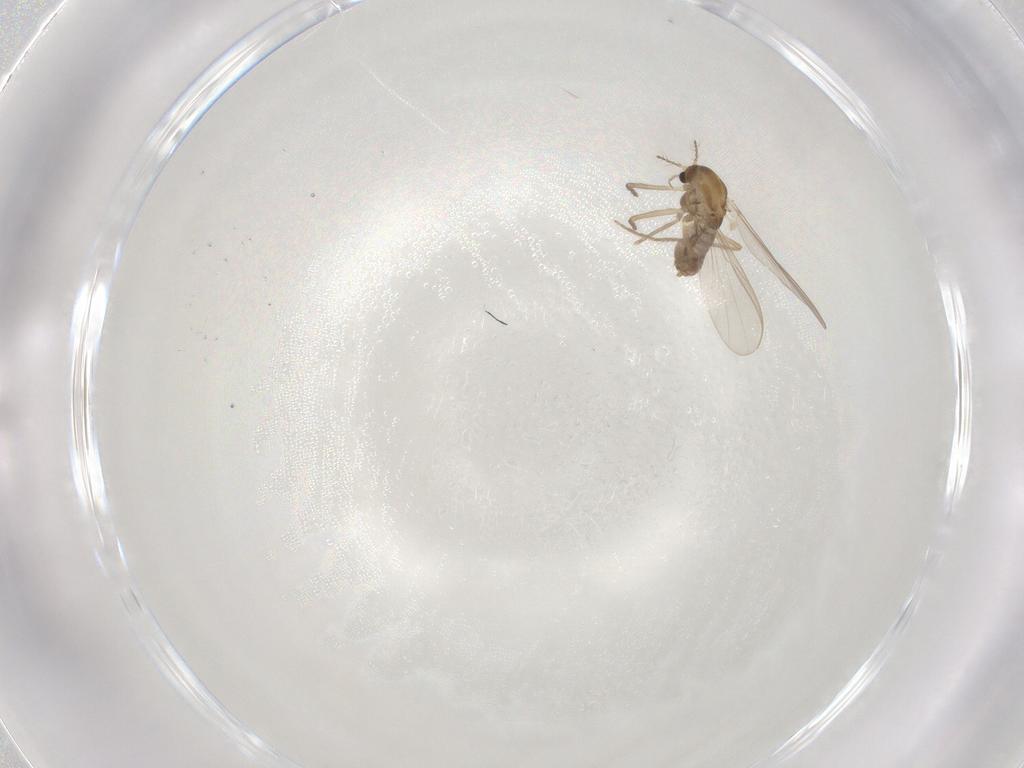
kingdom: Animalia
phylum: Arthropoda
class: Insecta
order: Diptera
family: Chironomidae
